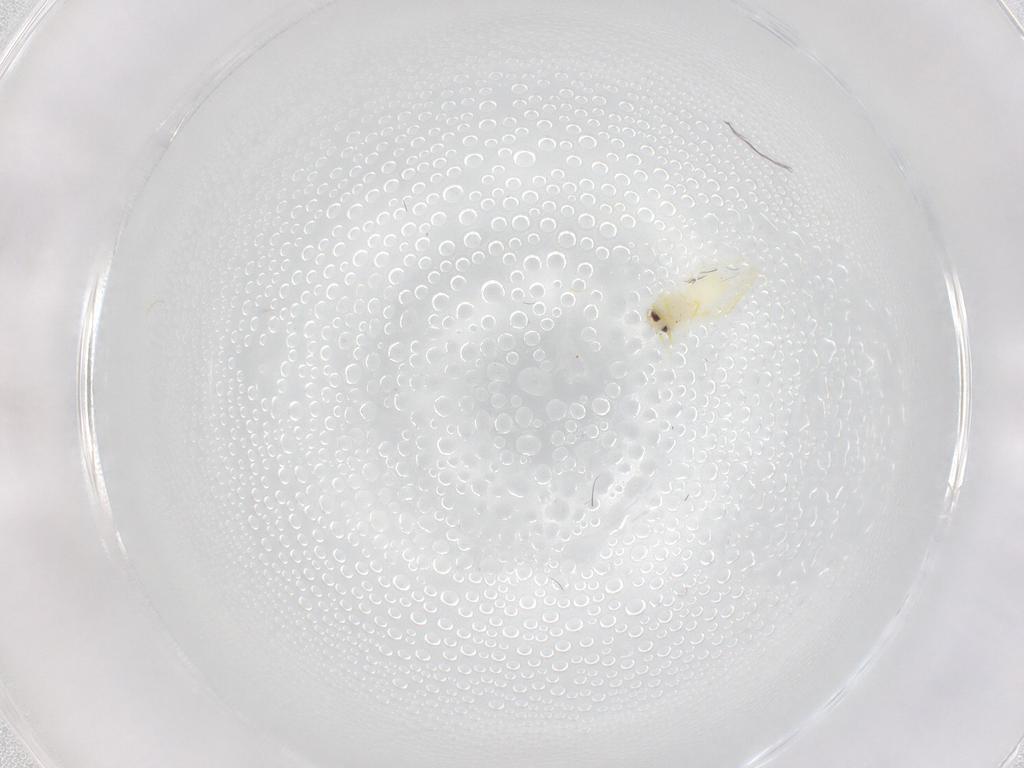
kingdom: Animalia
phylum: Arthropoda
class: Insecta
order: Hemiptera
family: Aleyrodidae
